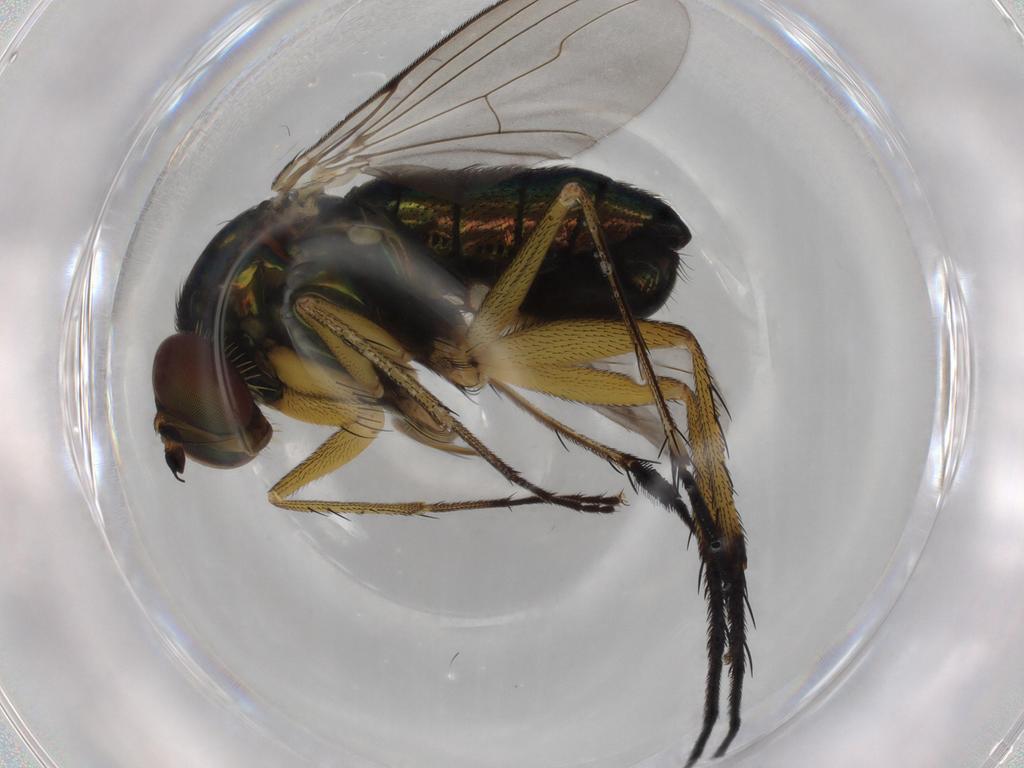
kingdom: Animalia
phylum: Arthropoda
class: Insecta
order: Diptera
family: Dolichopodidae
